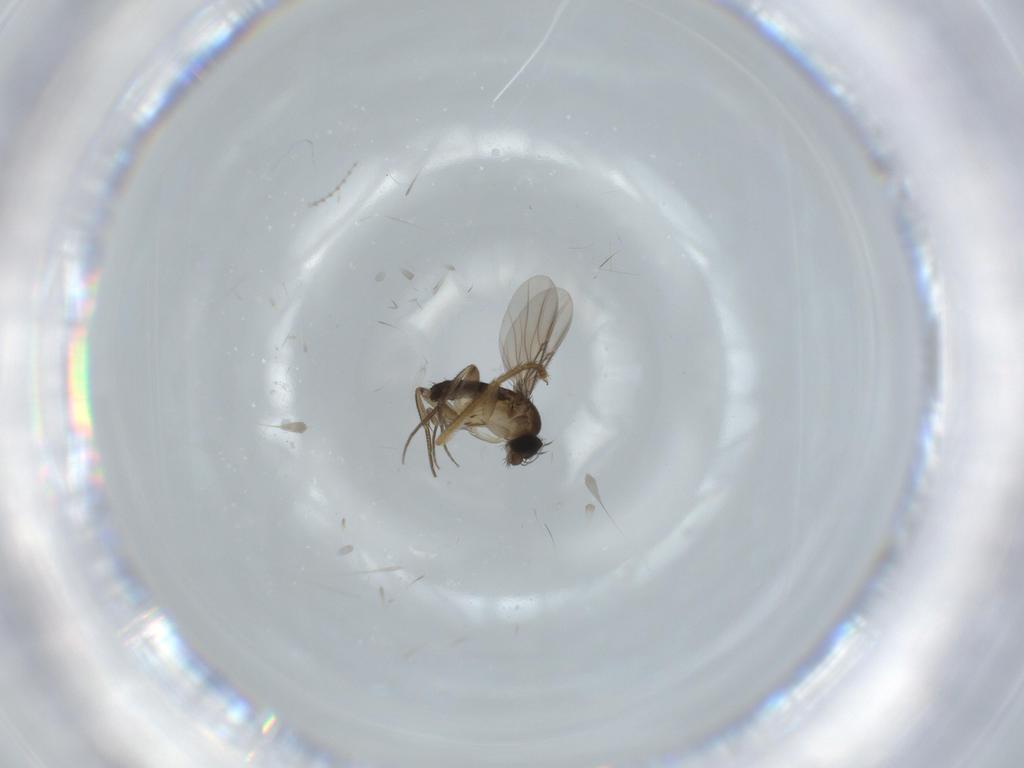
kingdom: Animalia
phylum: Arthropoda
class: Insecta
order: Diptera
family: Phoridae
